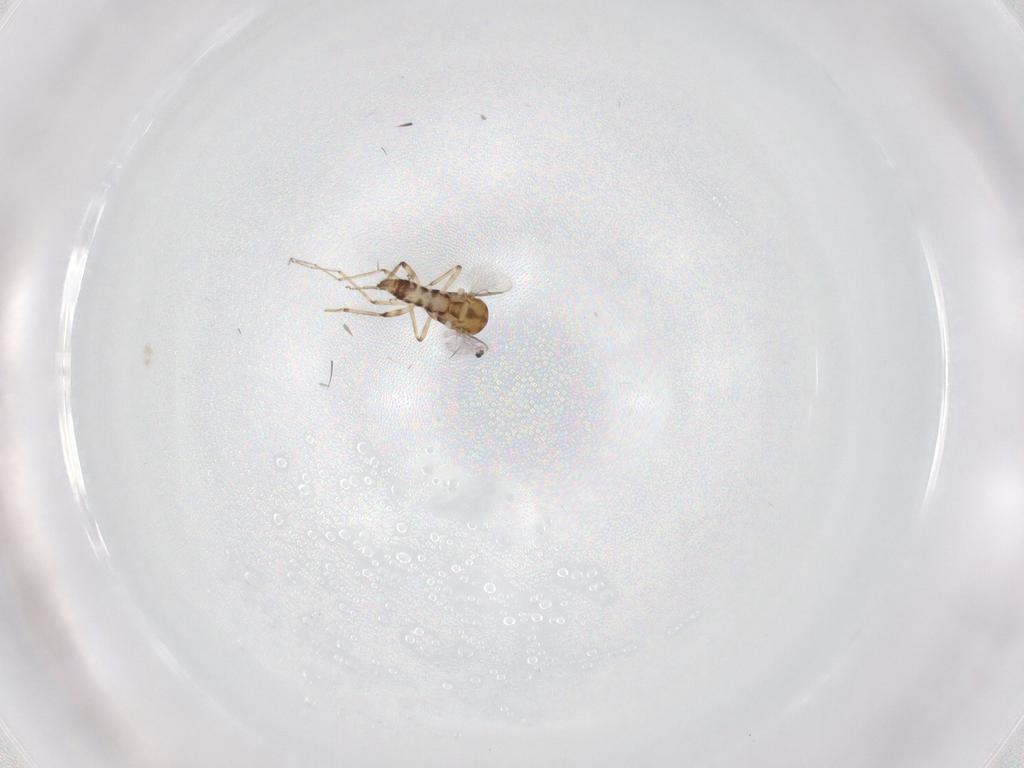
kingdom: Animalia
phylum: Arthropoda
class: Insecta
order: Diptera
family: Ceratopogonidae
